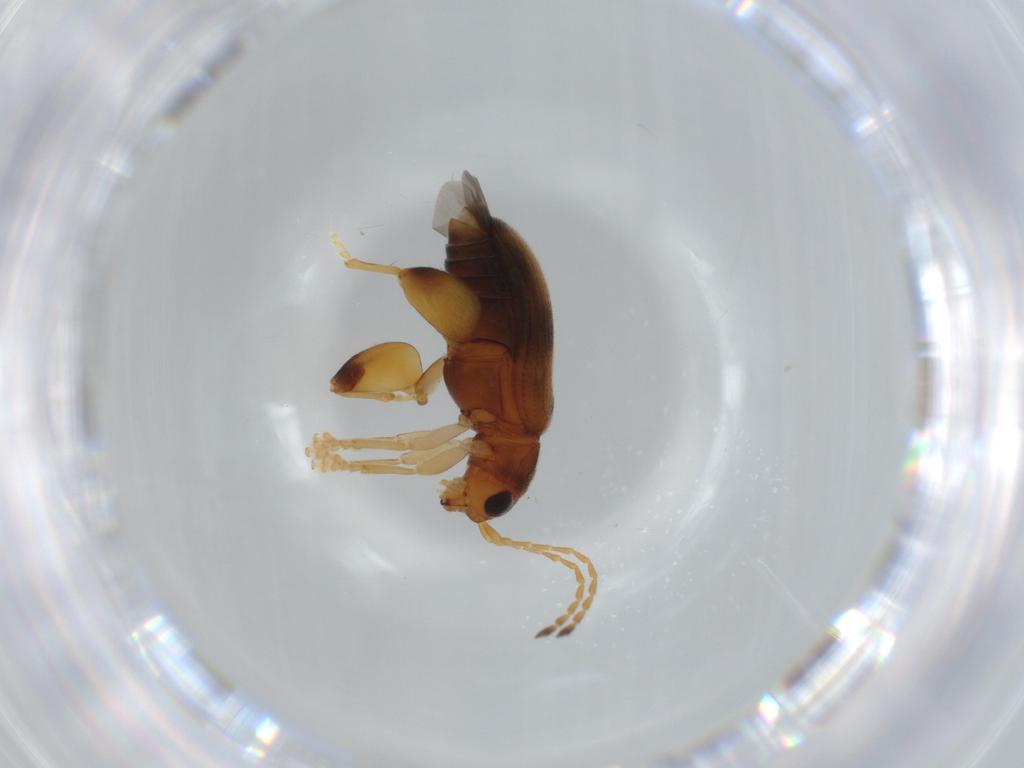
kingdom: Animalia
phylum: Arthropoda
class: Insecta
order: Coleoptera
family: Chrysomelidae
